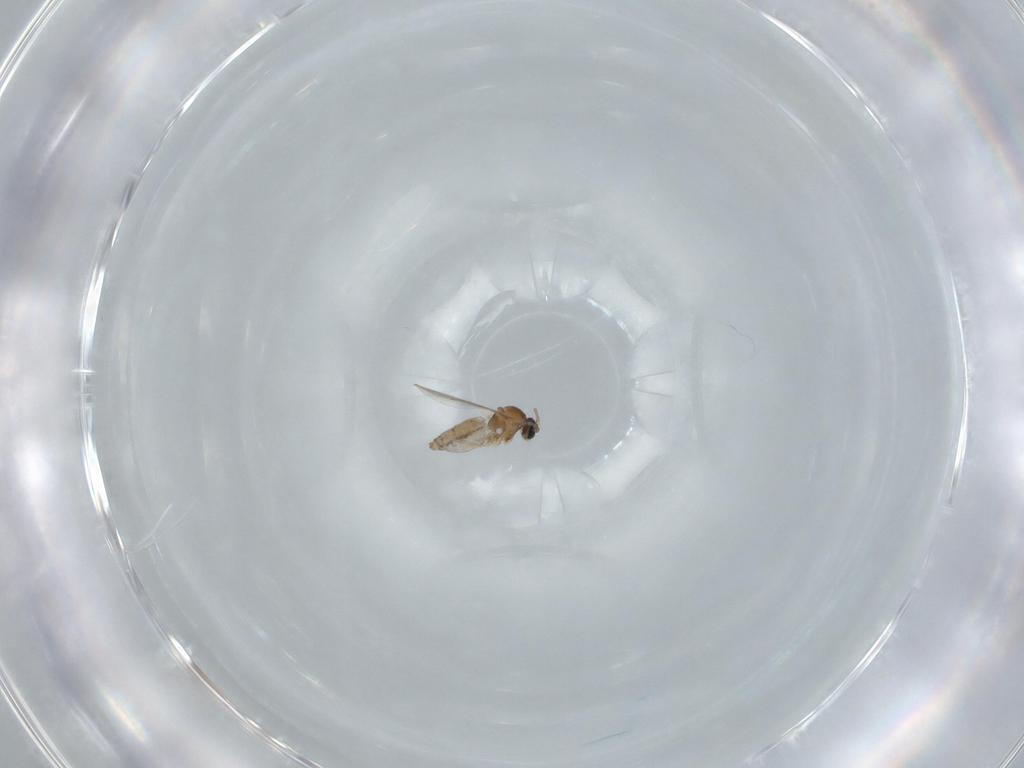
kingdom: Animalia
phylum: Arthropoda
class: Insecta
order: Diptera
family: Cecidomyiidae
